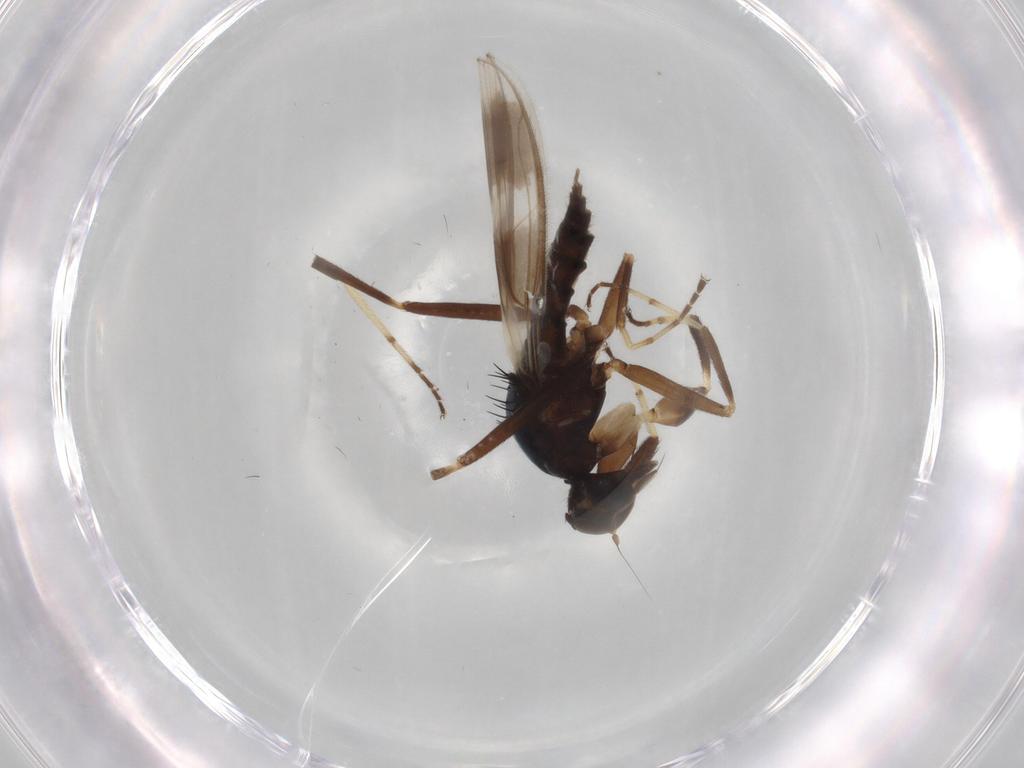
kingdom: Animalia
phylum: Arthropoda
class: Insecta
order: Diptera
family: Hybotidae
